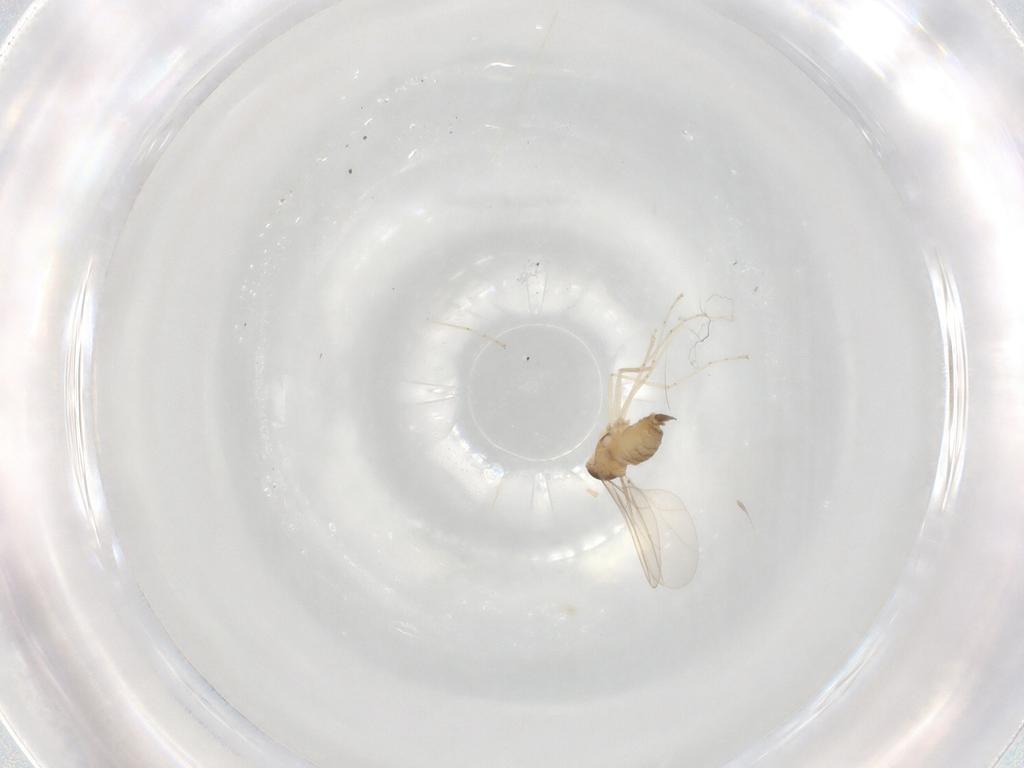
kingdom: Animalia
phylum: Arthropoda
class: Insecta
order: Diptera
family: Cecidomyiidae
